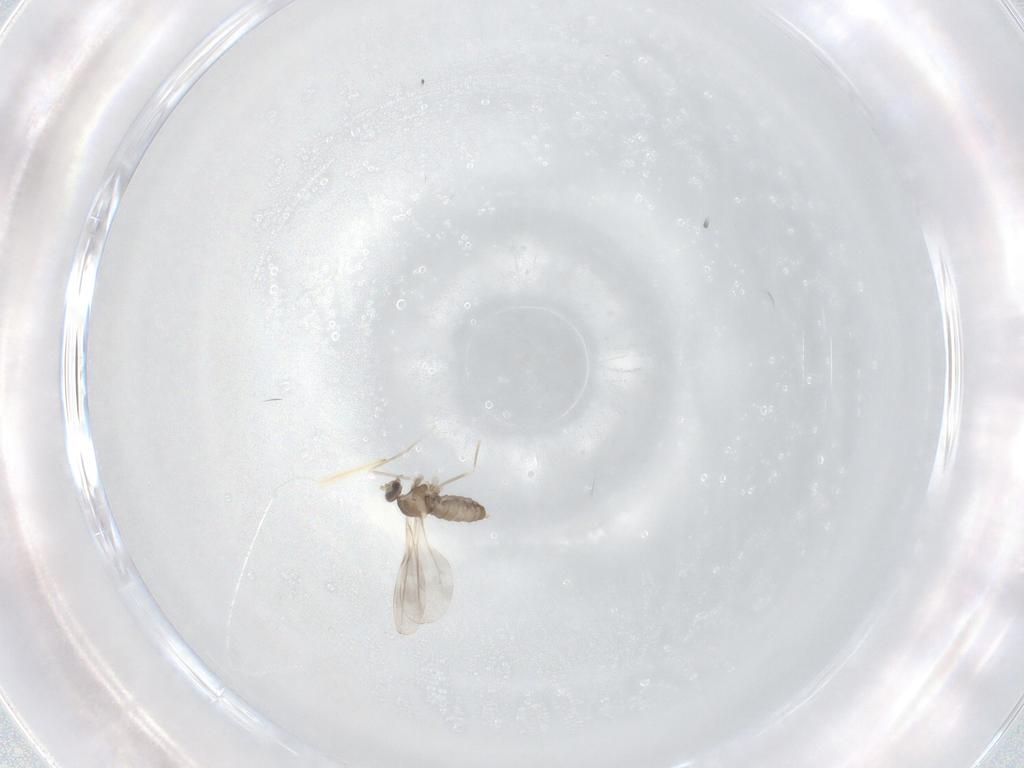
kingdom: Animalia
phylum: Arthropoda
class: Insecta
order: Diptera
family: Cecidomyiidae
